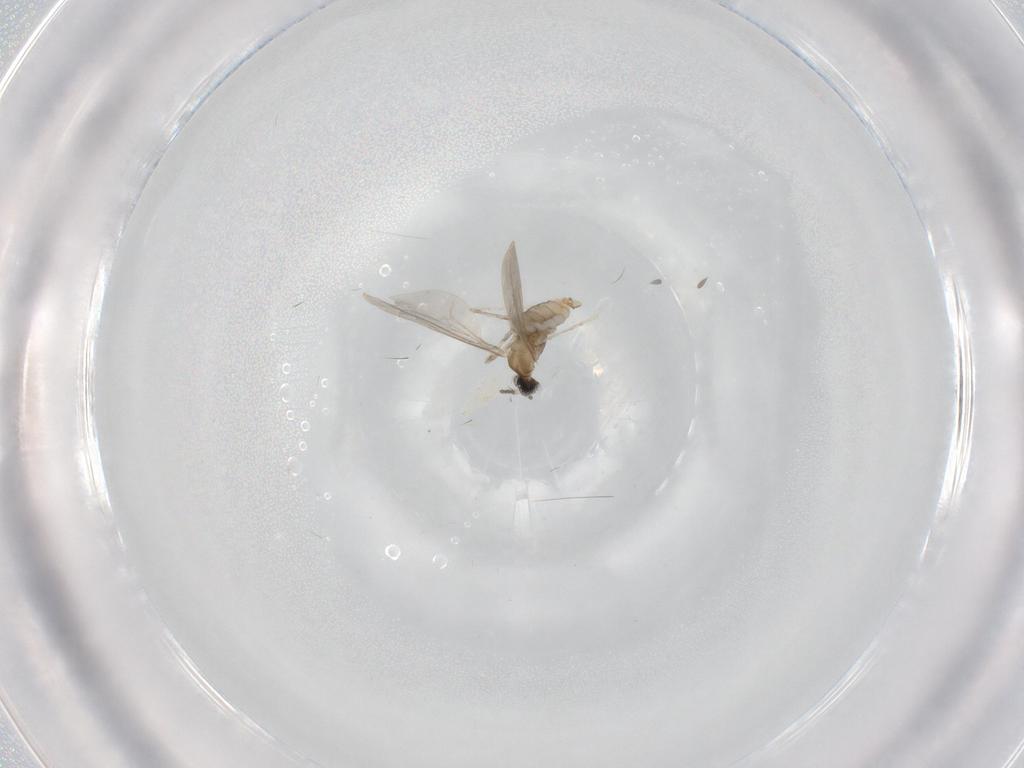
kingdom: Animalia
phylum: Arthropoda
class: Insecta
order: Diptera
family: Cecidomyiidae
